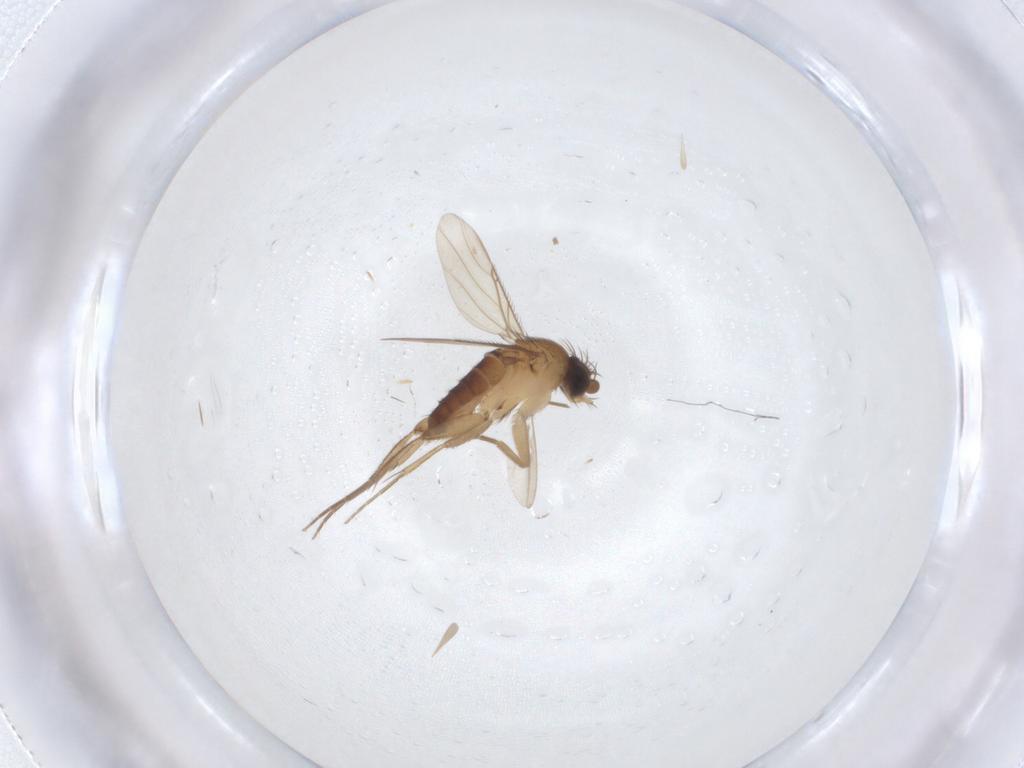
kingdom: Animalia
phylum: Arthropoda
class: Insecta
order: Diptera
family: Phoridae
